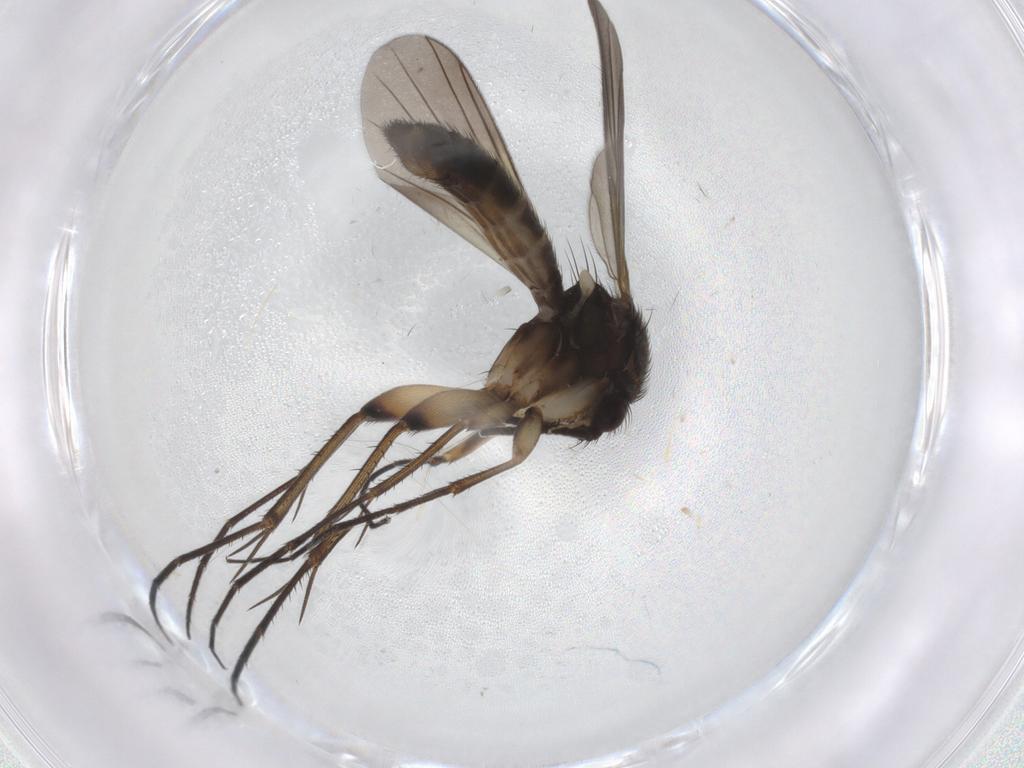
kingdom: Animalia
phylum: Arthropoda
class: Insecta
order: Diptera
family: Mycetophilidae
